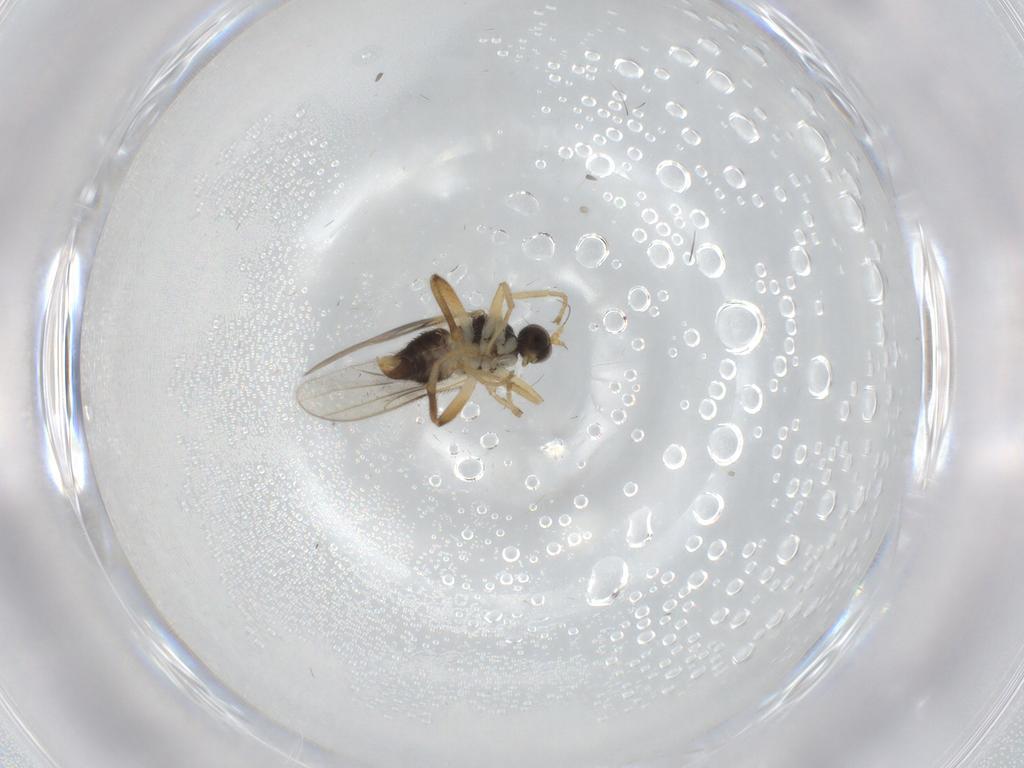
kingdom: Animalia
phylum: Arthropoda
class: Insecta
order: Diptera
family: Hybotidae
